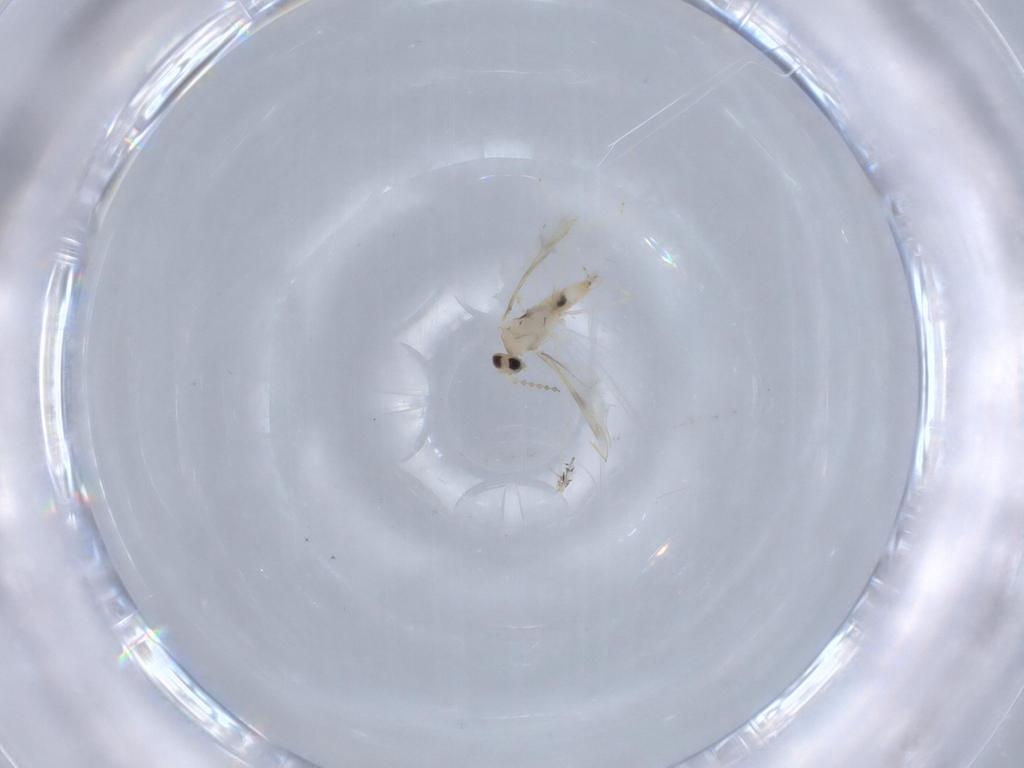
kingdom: Animalia
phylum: Arthropoda
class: Insecta
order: Diptera
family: Cecidomyiidae
